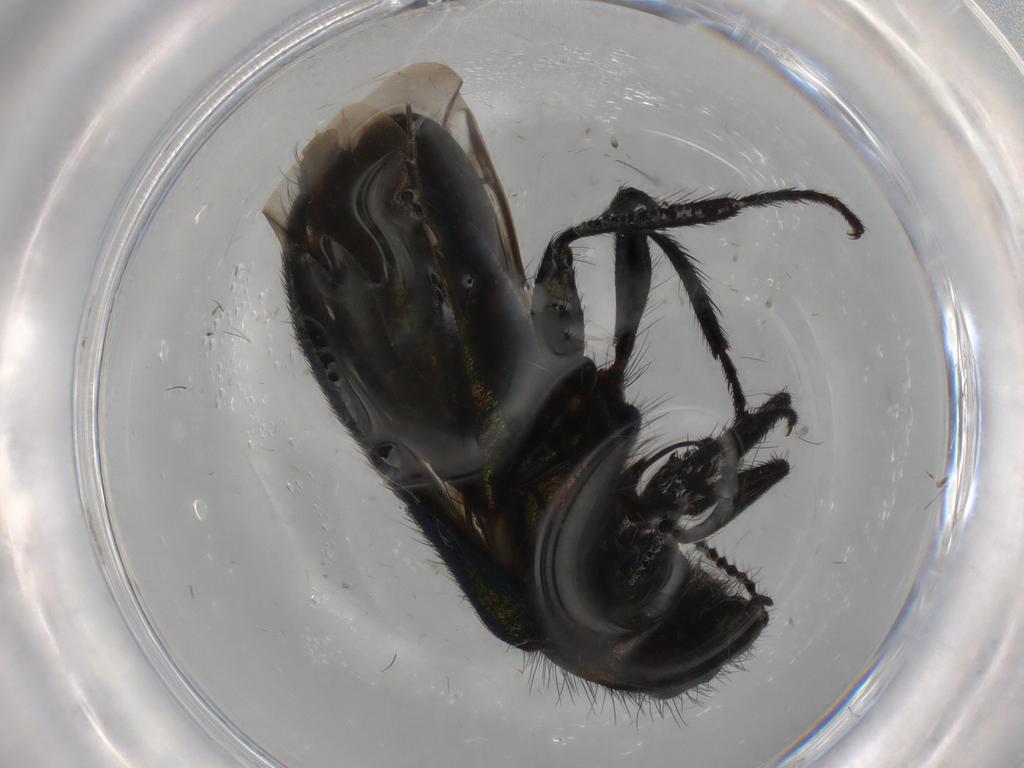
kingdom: Animalia
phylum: Arthropoda
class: Insecta
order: Coleoptera
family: Melyridae
